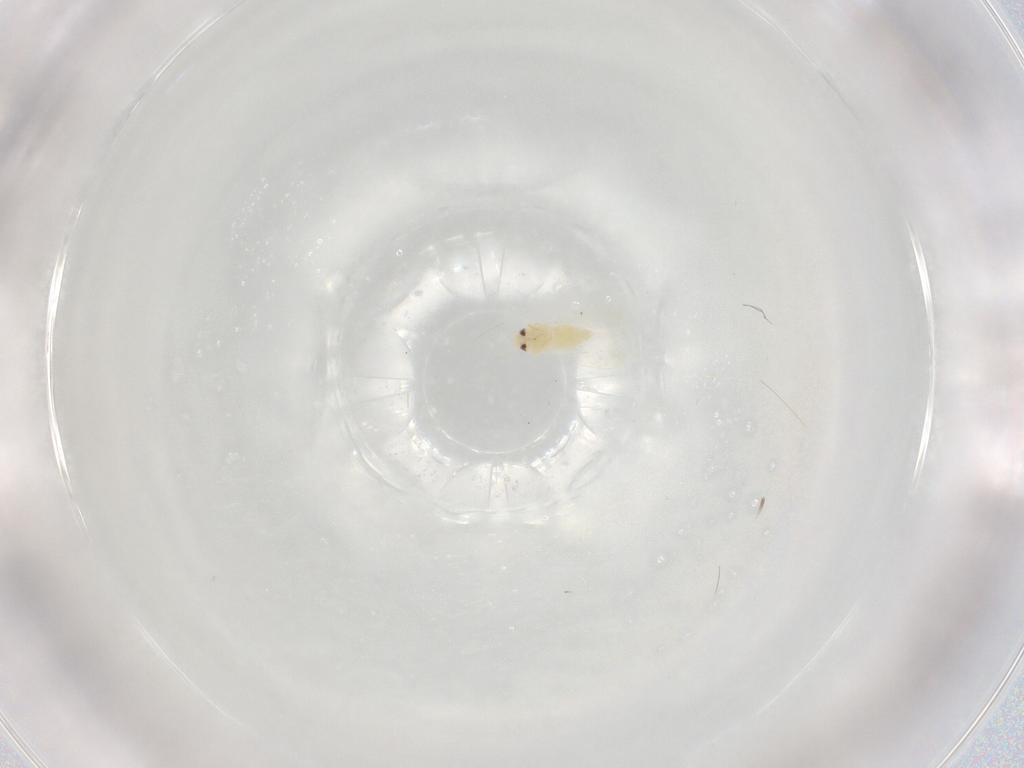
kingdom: Animalia
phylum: Arthropoda
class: Insecta
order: Hemiptera
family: Aleyrodidae
